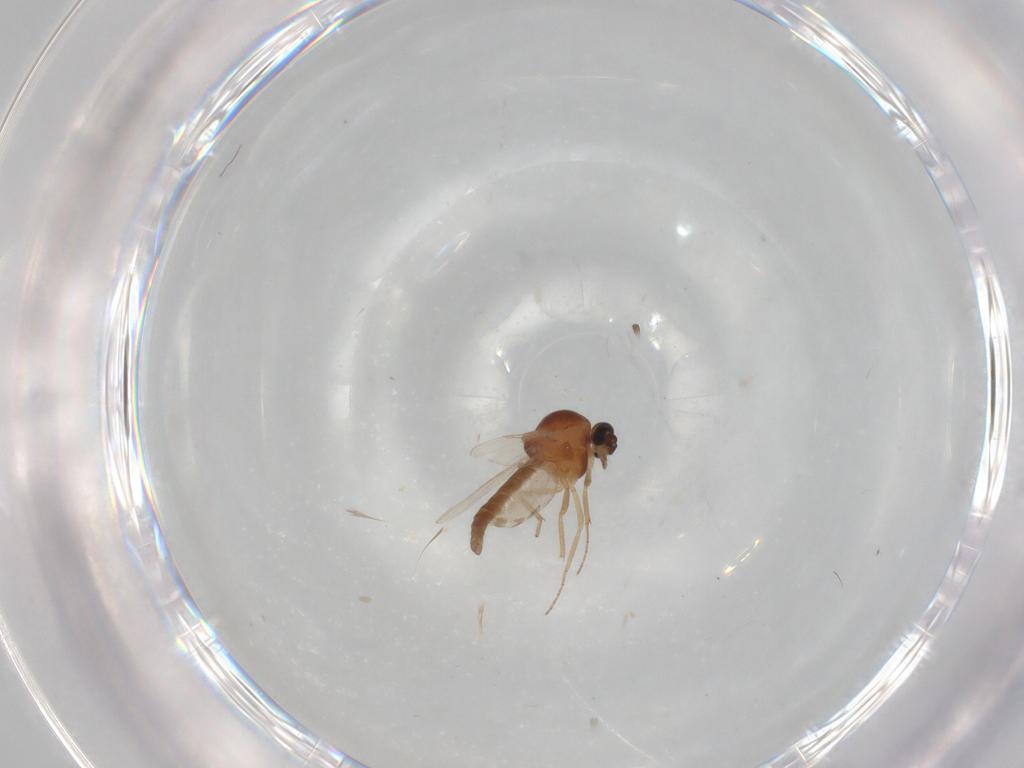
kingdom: Animalia
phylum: Arthropoda
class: Insecta
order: Diptera
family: Ceratopogonidae
